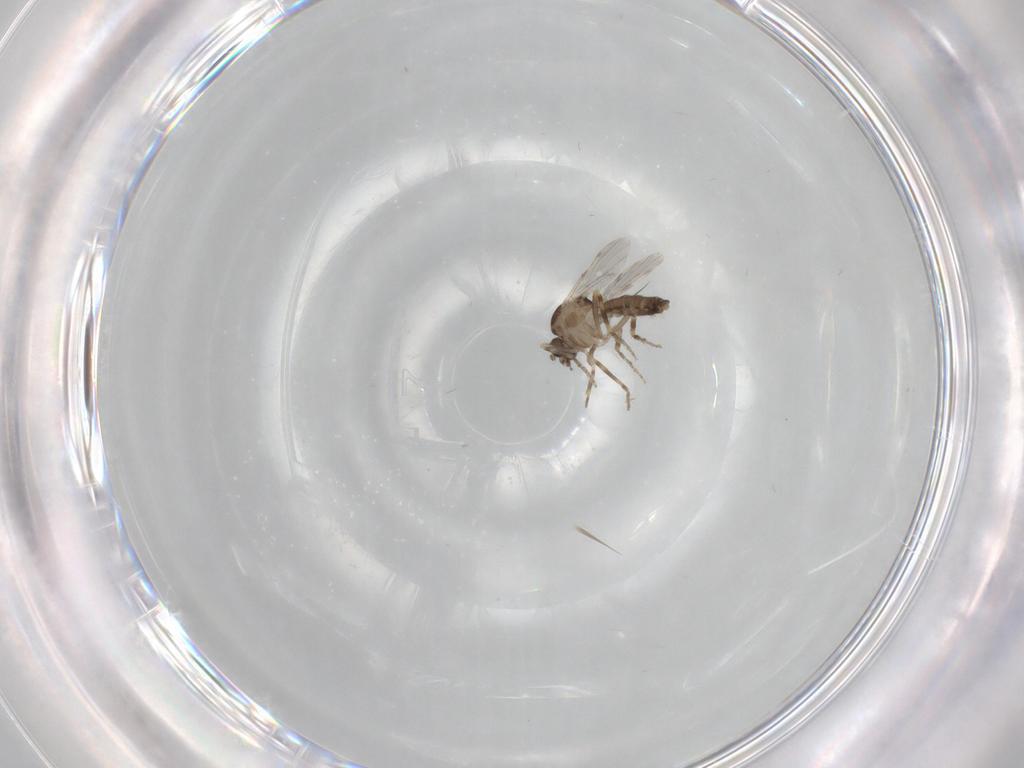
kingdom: Animalia
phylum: Arthropoda
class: Insecta
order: Diptera
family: Ceratopogonidae
